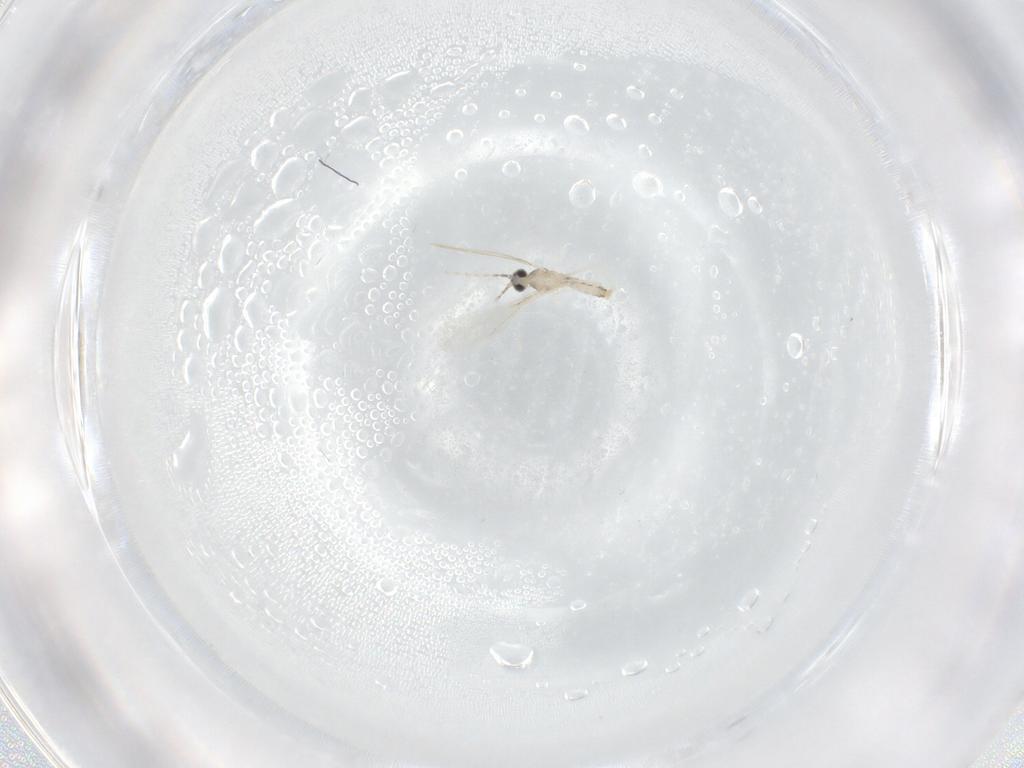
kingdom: Animalia
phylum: Arthropoda
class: Insecta
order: Diptera
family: Cecidomyiidae
